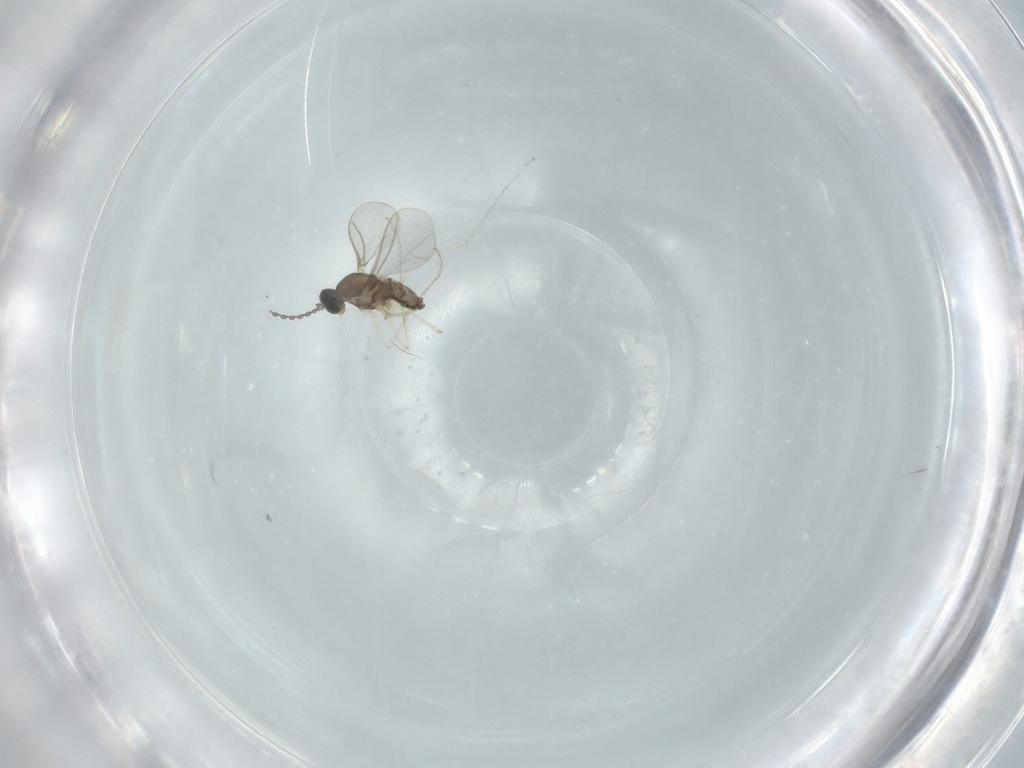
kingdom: Animalia
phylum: Arthropoda
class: Insecta
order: Diptera
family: Cecidomyiidae
